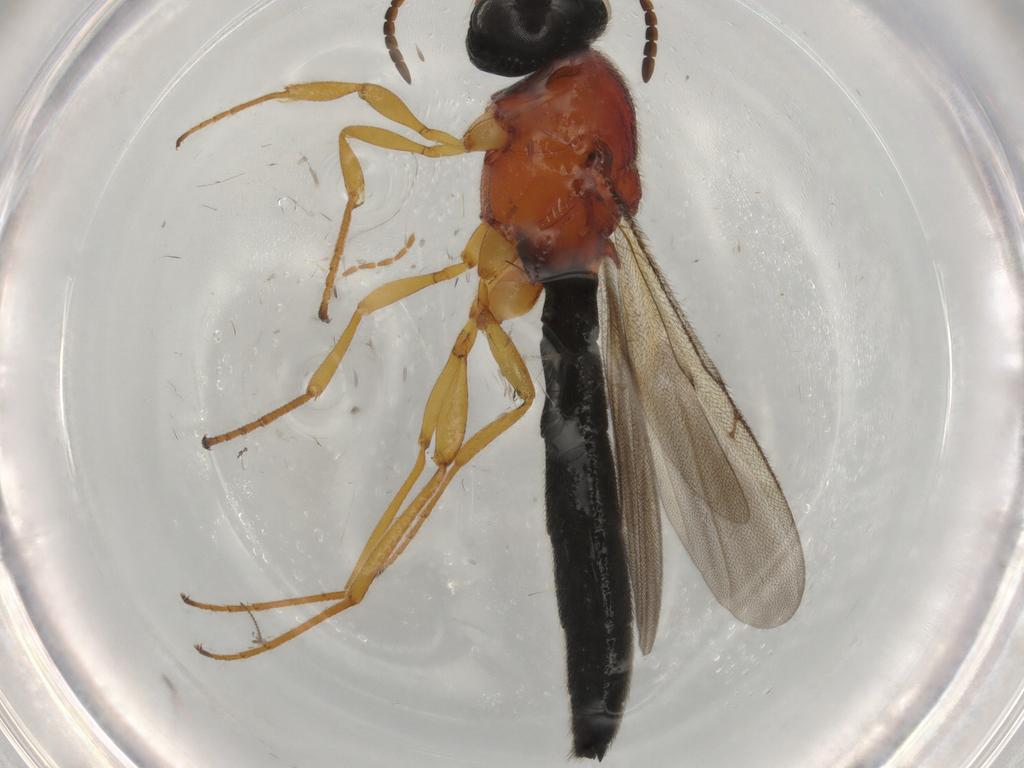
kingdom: Animalia
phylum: Arthropoda
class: Insecta
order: Hymenoptera
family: Scelionidae
